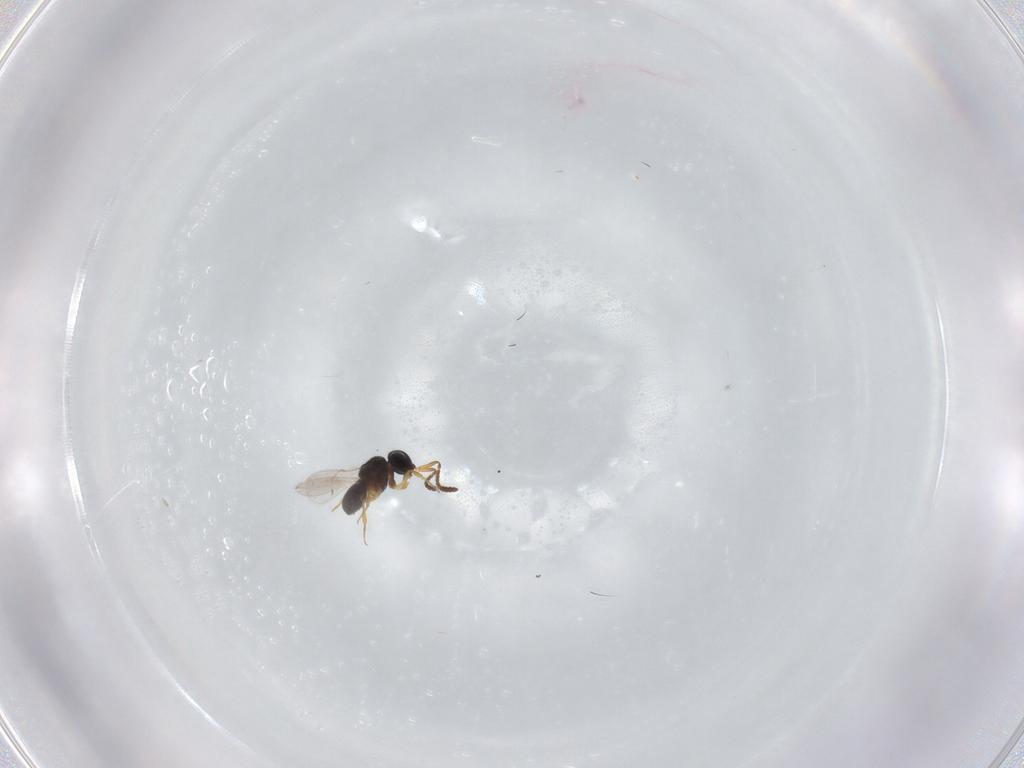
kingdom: Animalia
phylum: Arthropoda
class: Insecta
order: Hymenoptera
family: Scelionidae
